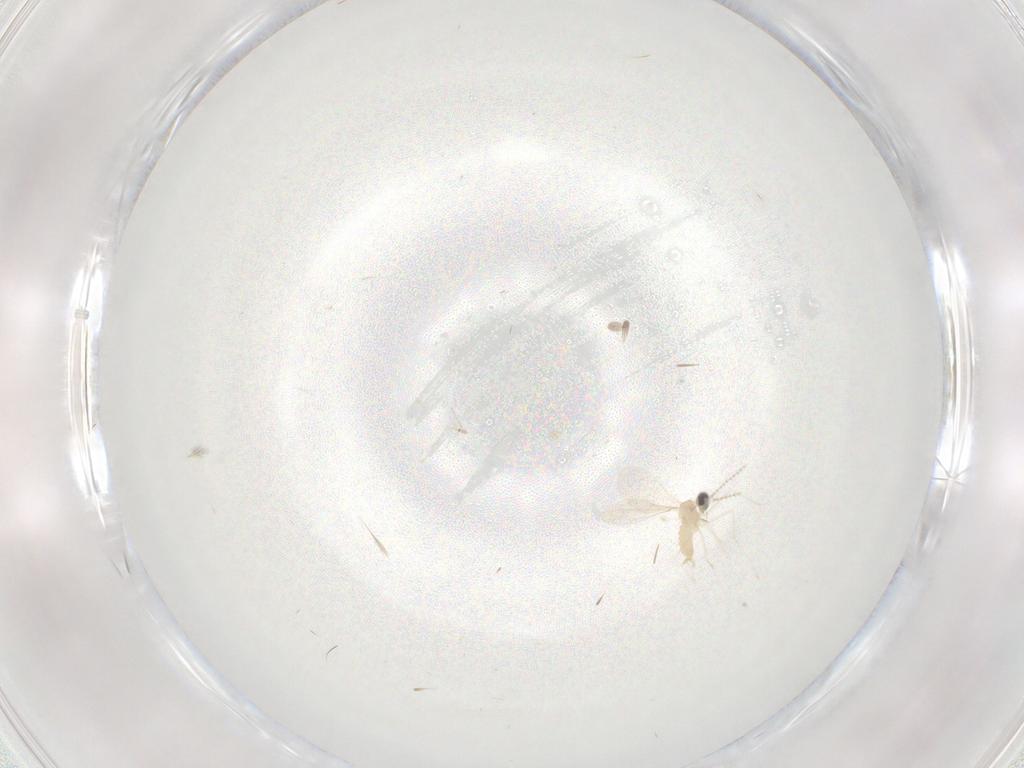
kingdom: Animalia
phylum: Arthropoda
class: Insecta
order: Diptera
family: Cecidomyiidae
